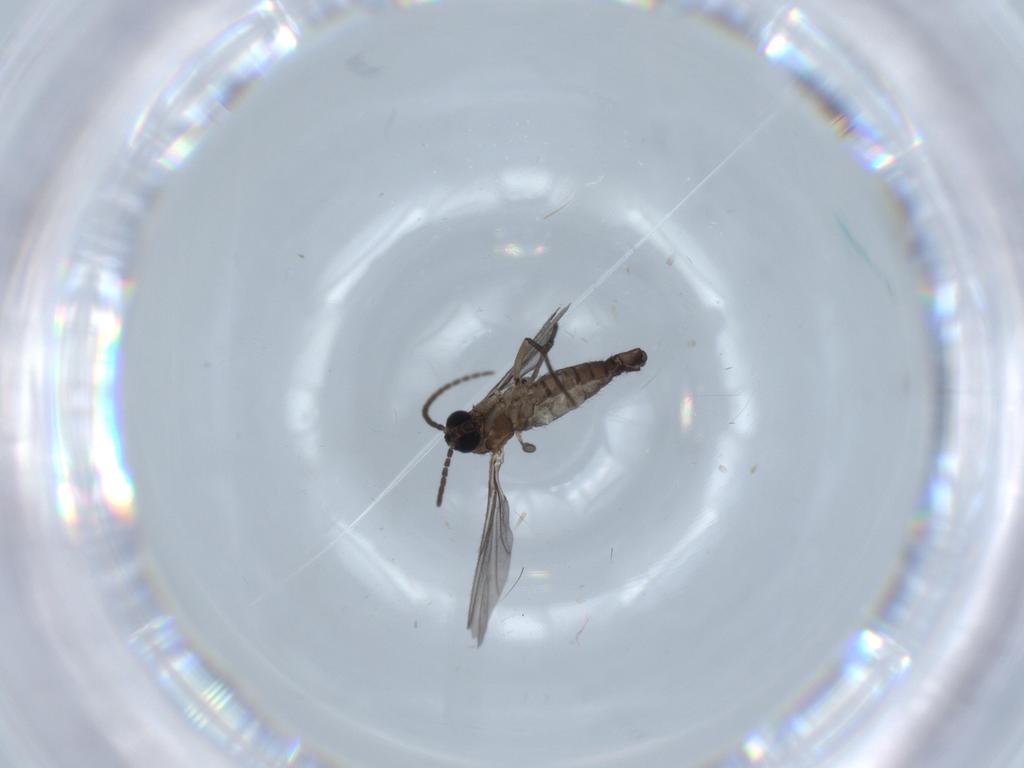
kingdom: Animalia
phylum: Arthropoda
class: Insecta
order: Diptera
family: Sciaridae
